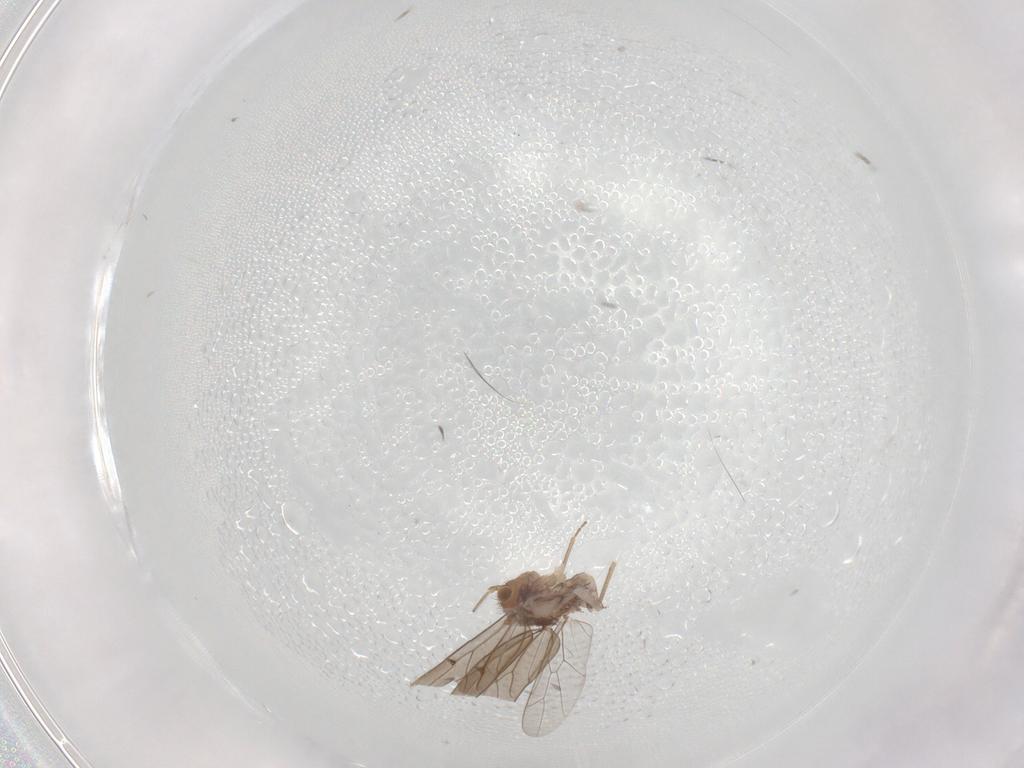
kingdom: Animalia
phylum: Arthropoda
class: Insecta
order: Psocodea
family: Ectopsocidae
